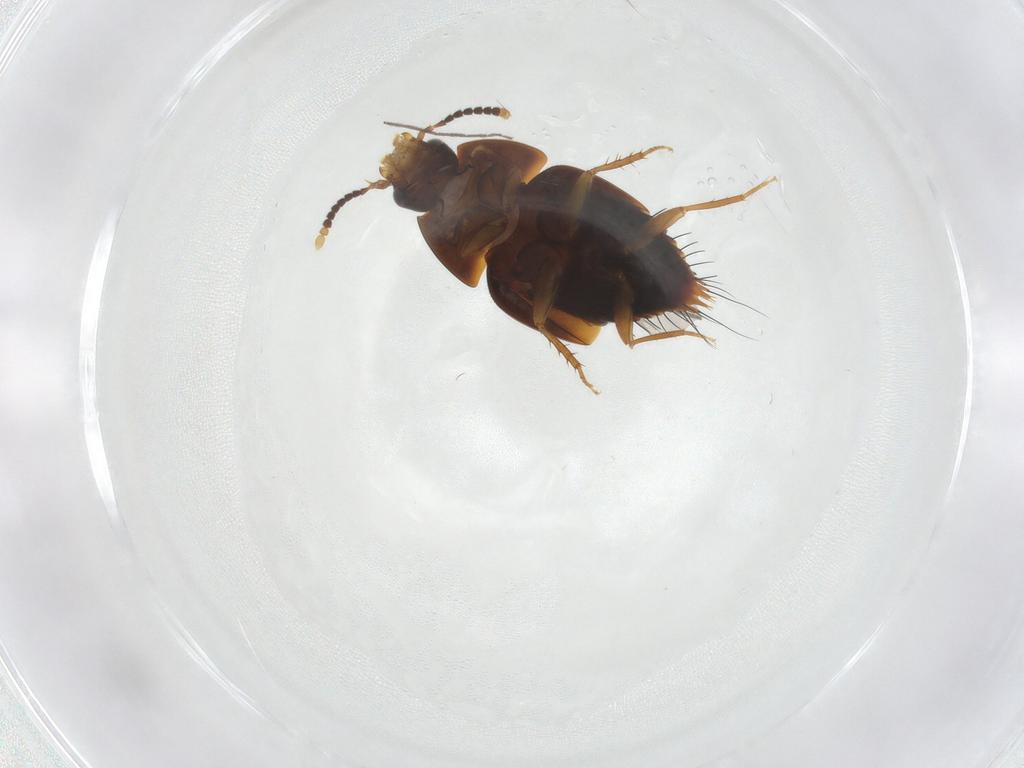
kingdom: Animalia
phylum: Arthropoda
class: Insecta
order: Coleoptera
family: Staphylinidae
